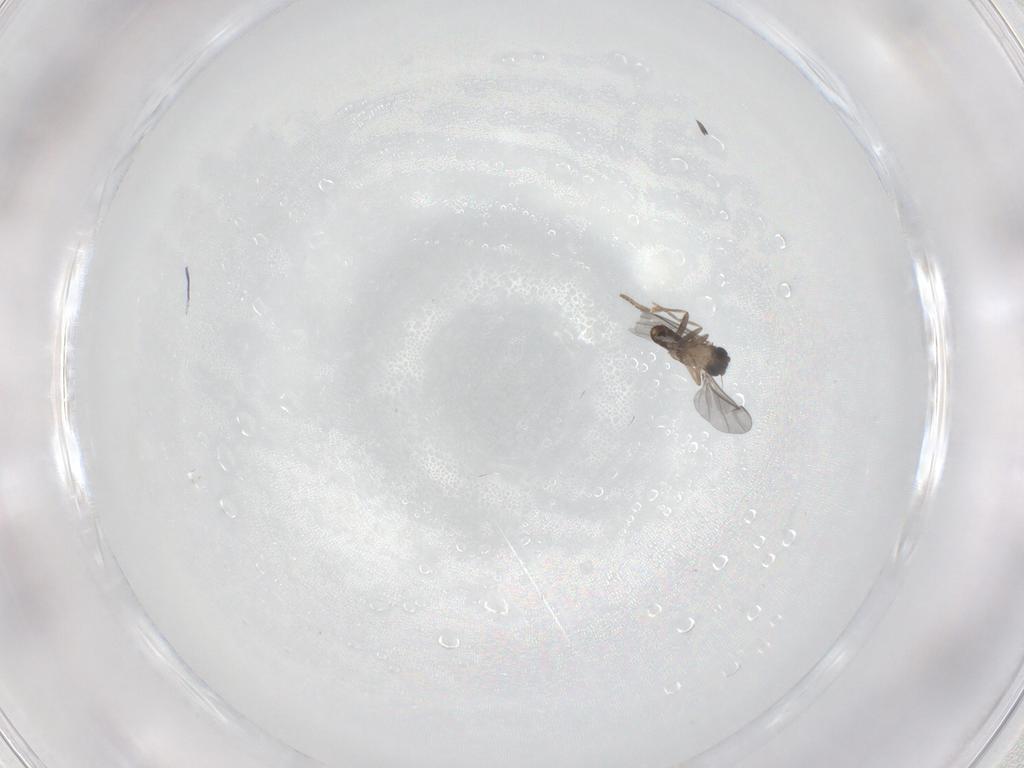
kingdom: Animalia
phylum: Arthropoda
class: Insecta
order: Diptera
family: Phoridae
